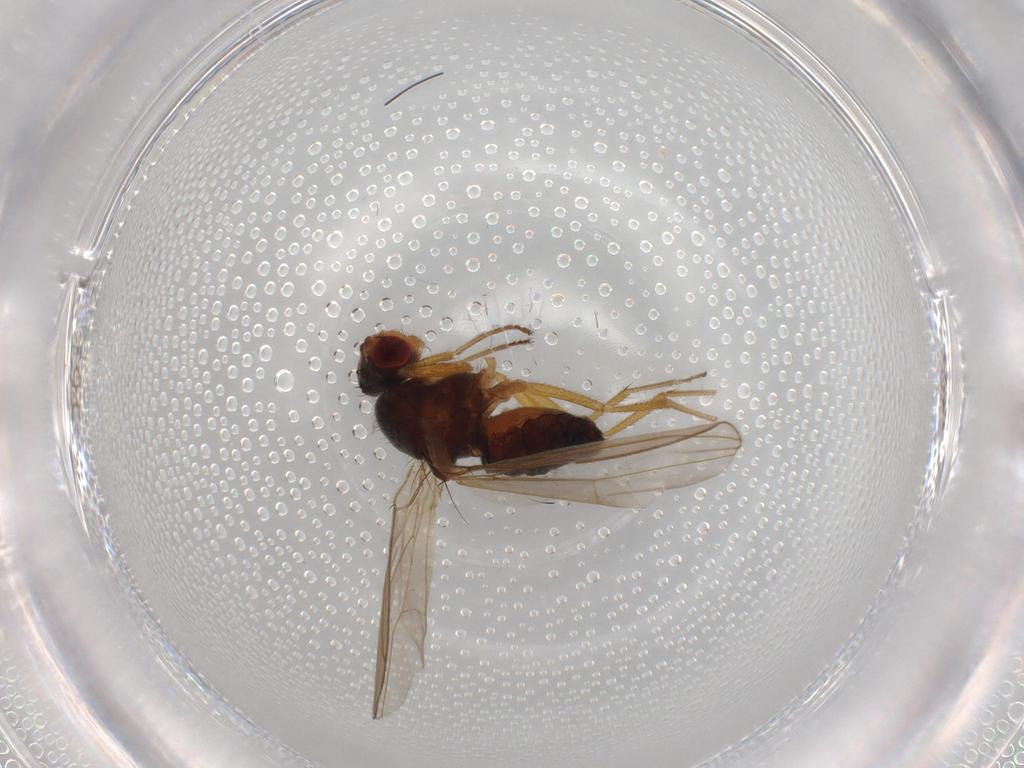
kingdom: Animalia
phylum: Arthropoda
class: Insecta
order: Diptera
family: Drosophilidae
